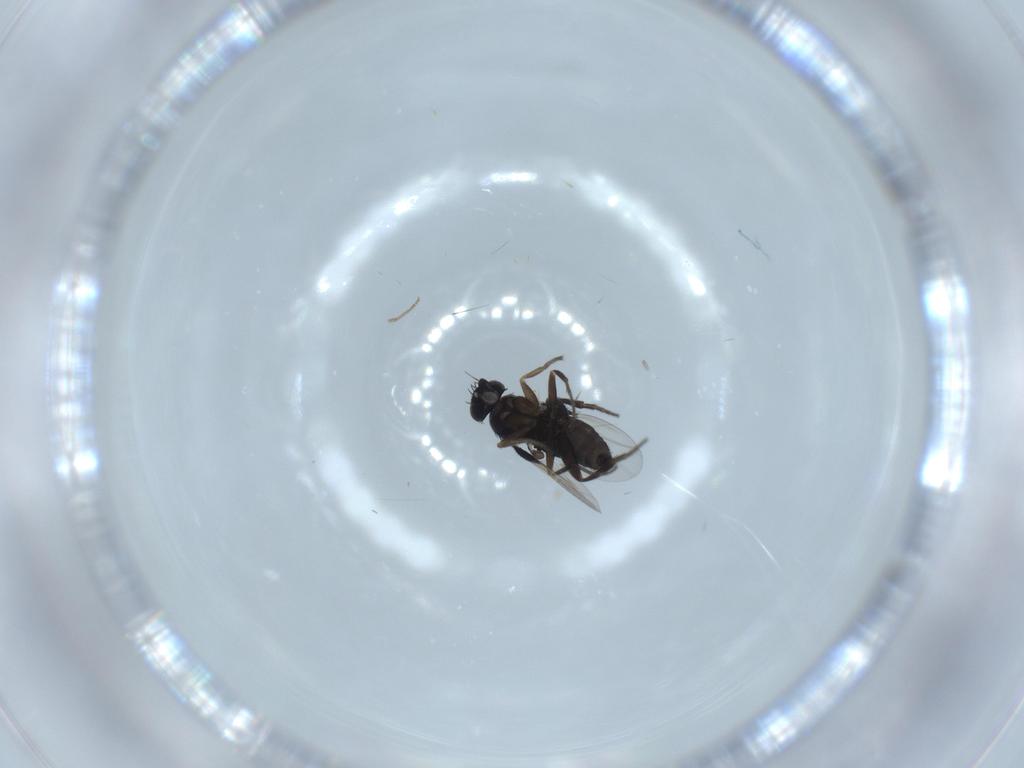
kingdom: Animalia
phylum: Arthropoda
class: Insecta
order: Diptera
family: Phoridae
